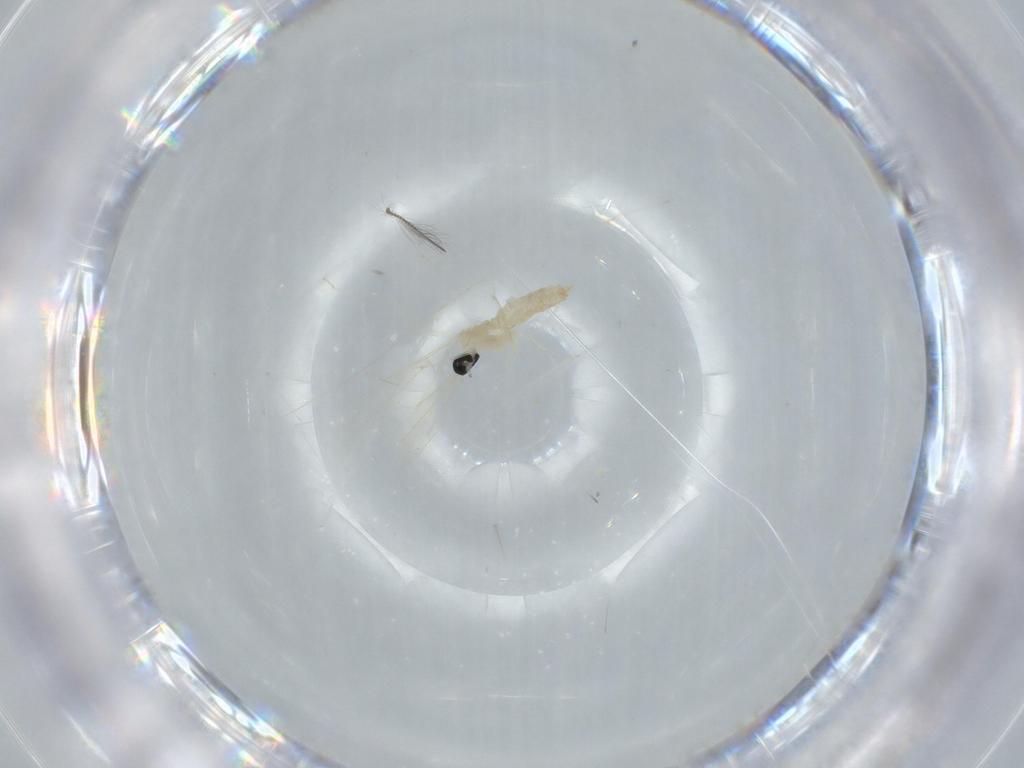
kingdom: Animalia
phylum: Arthropoda
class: Insecta
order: Diptera
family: Cecidomyiidae
